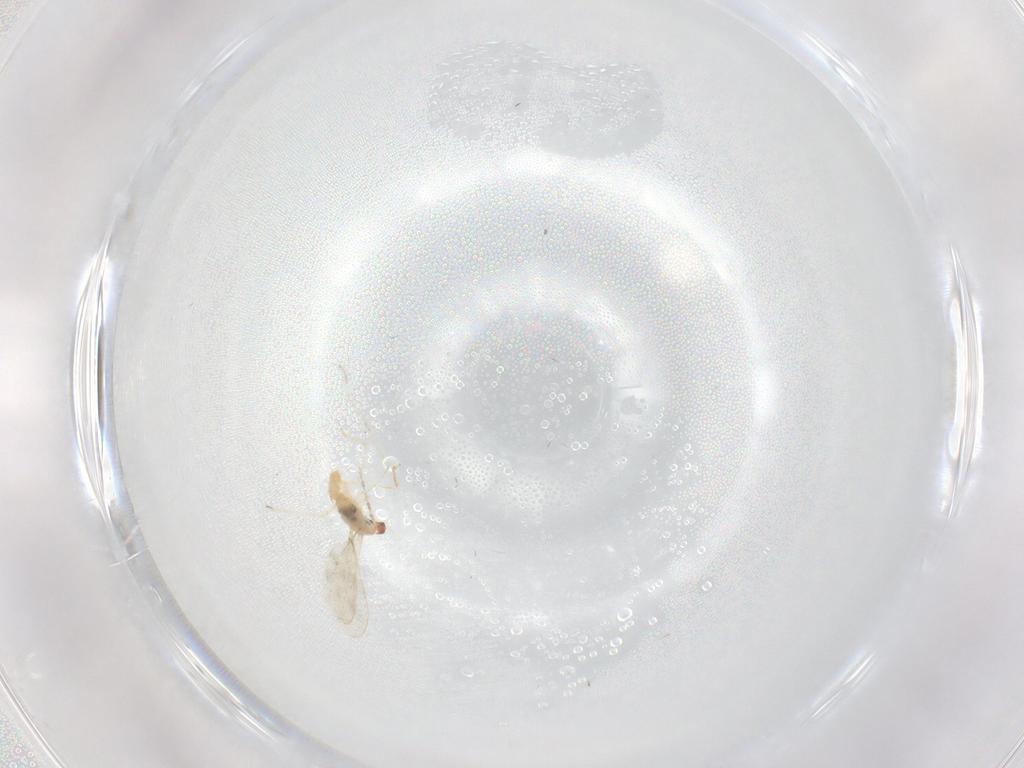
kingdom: Animalia
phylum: Arthropoda
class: Insecta
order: Diptera
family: Cecidomyiidae
